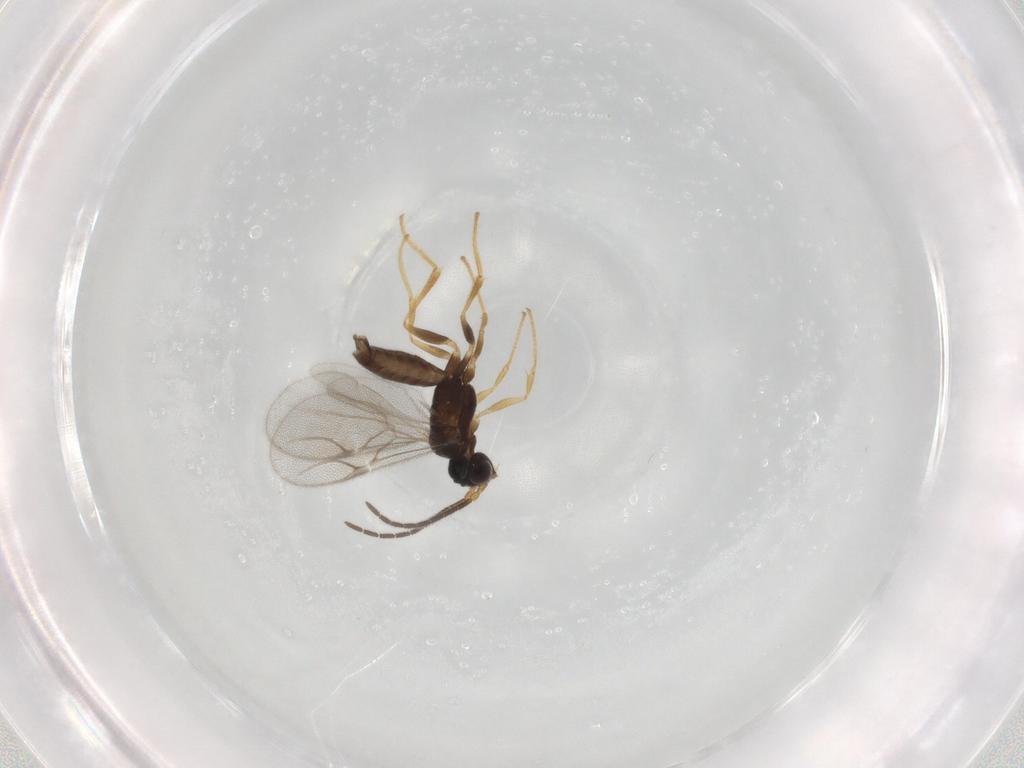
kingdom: Animalia
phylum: Arthropoda
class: Insecta
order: Hymenoptera
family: Dryinidae
